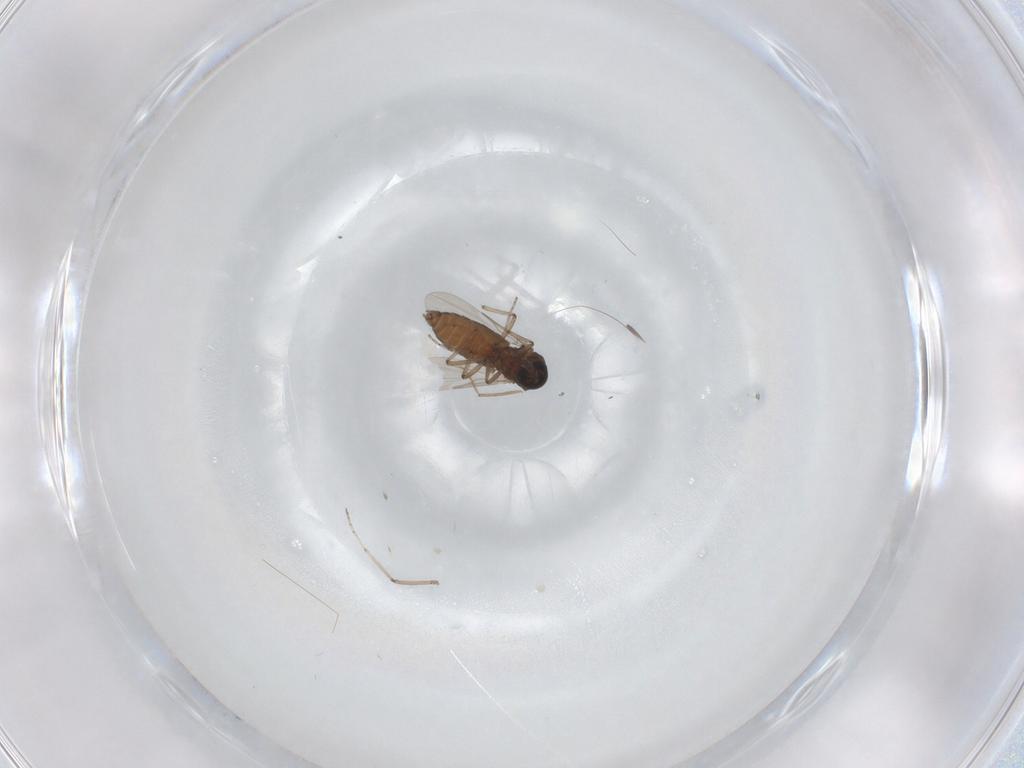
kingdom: Animalia
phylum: Arthropoda
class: Insecta
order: Diptera
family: Ceratopogonidae
